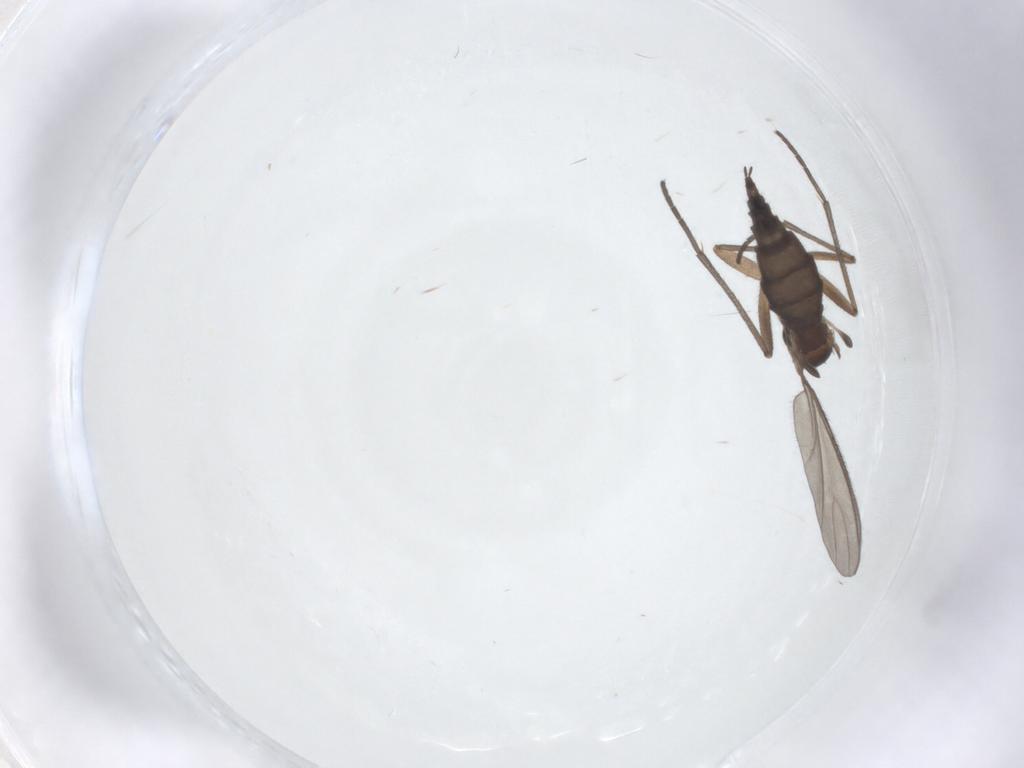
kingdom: Animalia
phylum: Arthropoda
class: Insecta
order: Diptera
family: Sciaridae
